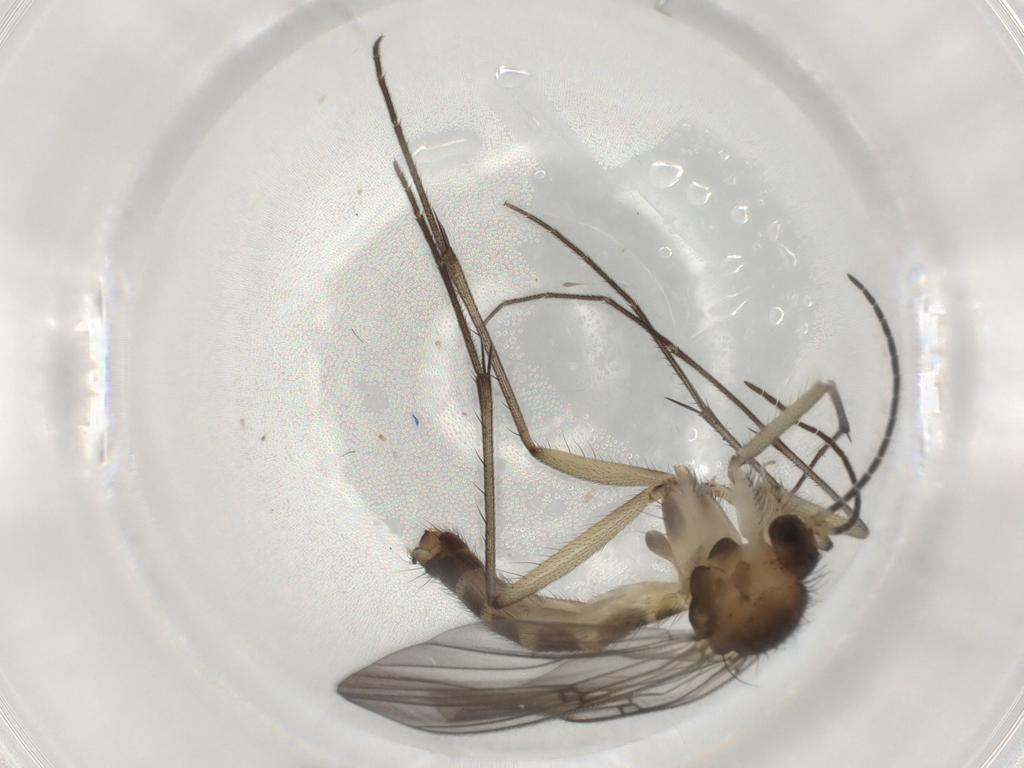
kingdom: Animalia
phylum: Arthropoda
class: Insecta
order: Diptera
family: Mycetophilidae
